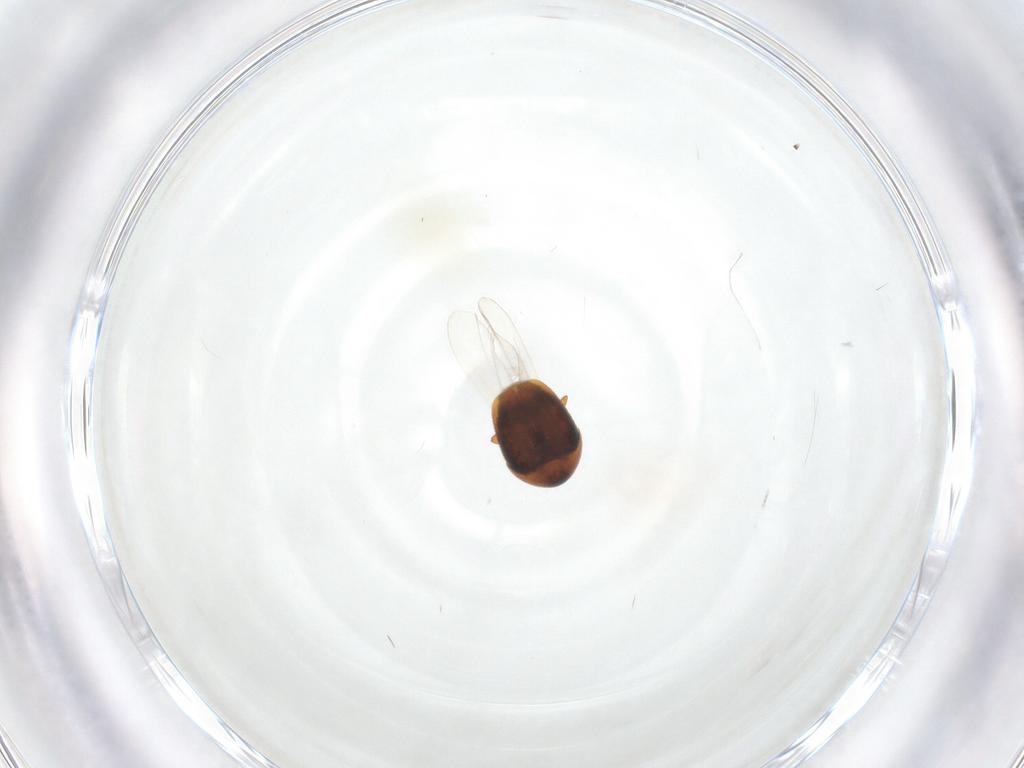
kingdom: Animalia
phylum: Arthropoda
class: Insecta
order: Coleoptera
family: Corylophidae
